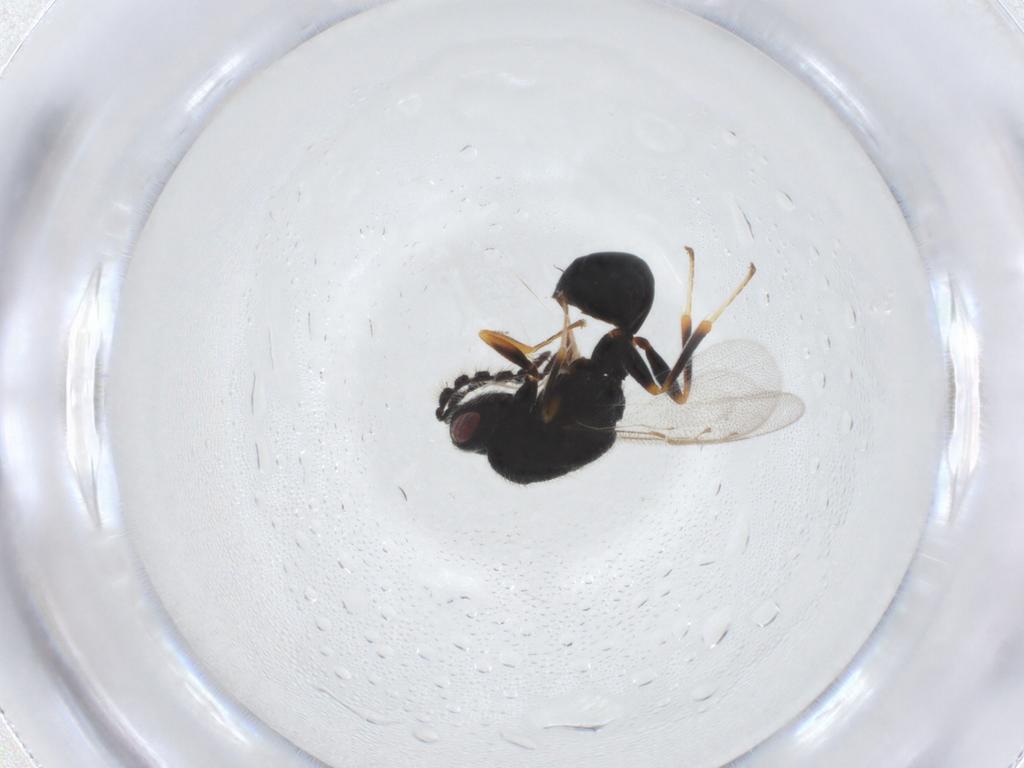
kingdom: Animalia
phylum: Arthropoda
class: Insecta
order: Hymenoptera
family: Eurytomidae
